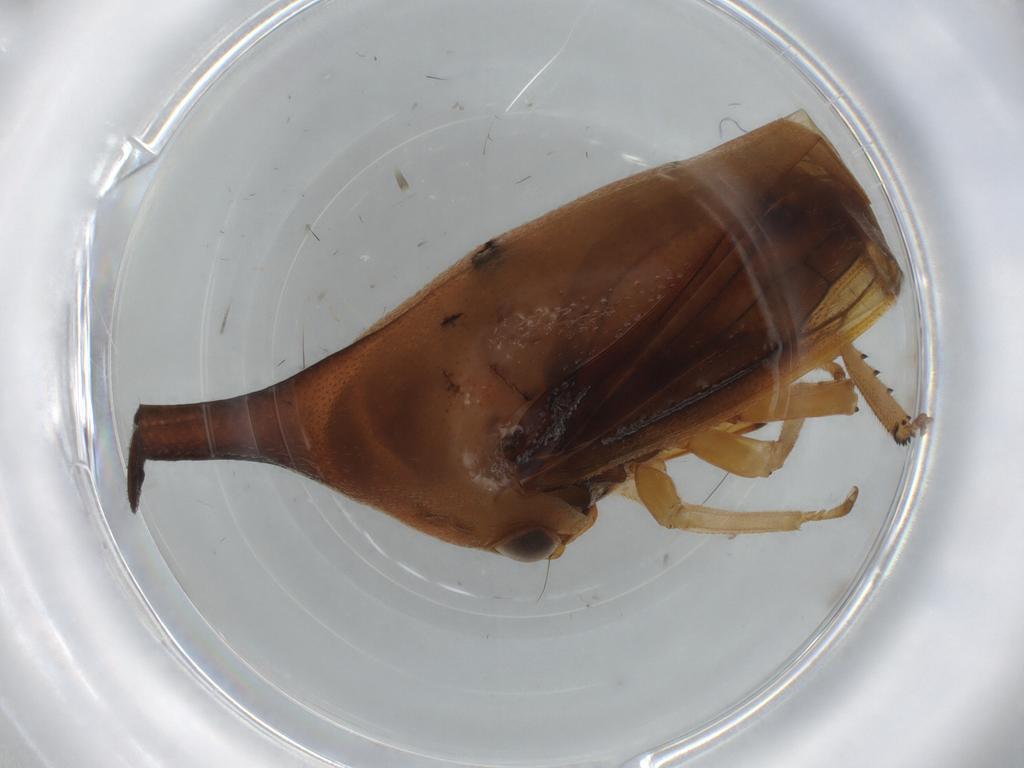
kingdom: Animalia
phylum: Arthropoda
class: Insecta
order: Hemiptera
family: Membracidae
